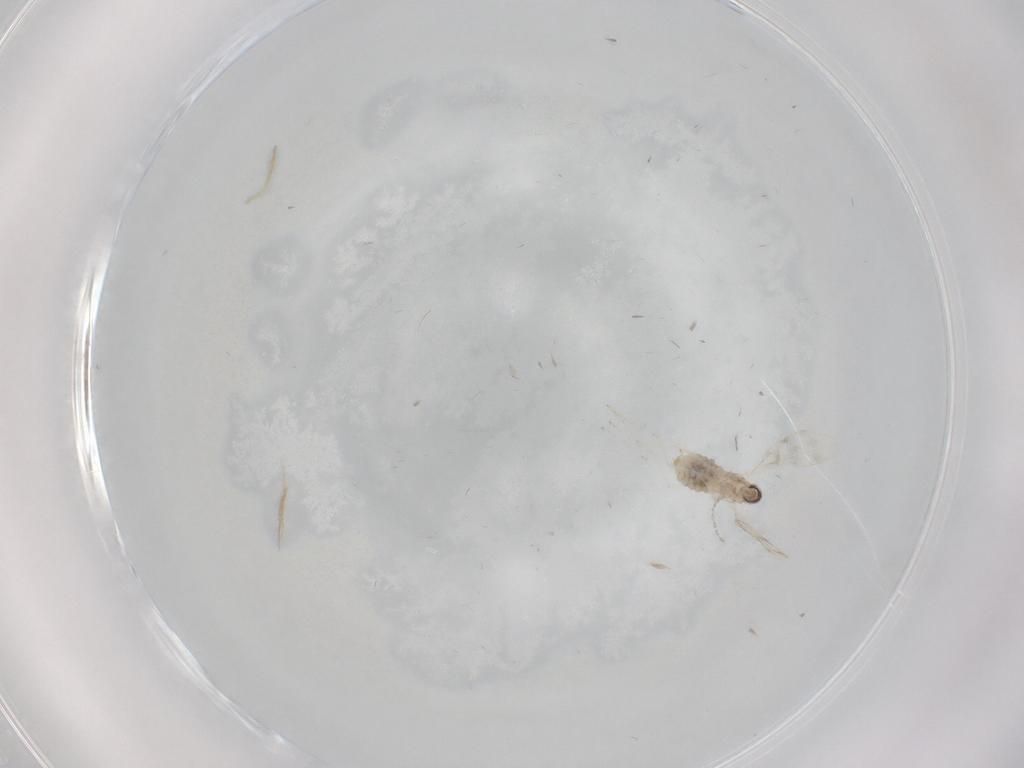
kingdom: Animalia
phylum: Arthropoda
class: Insecta
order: Diptera
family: Cecidomyiidae
